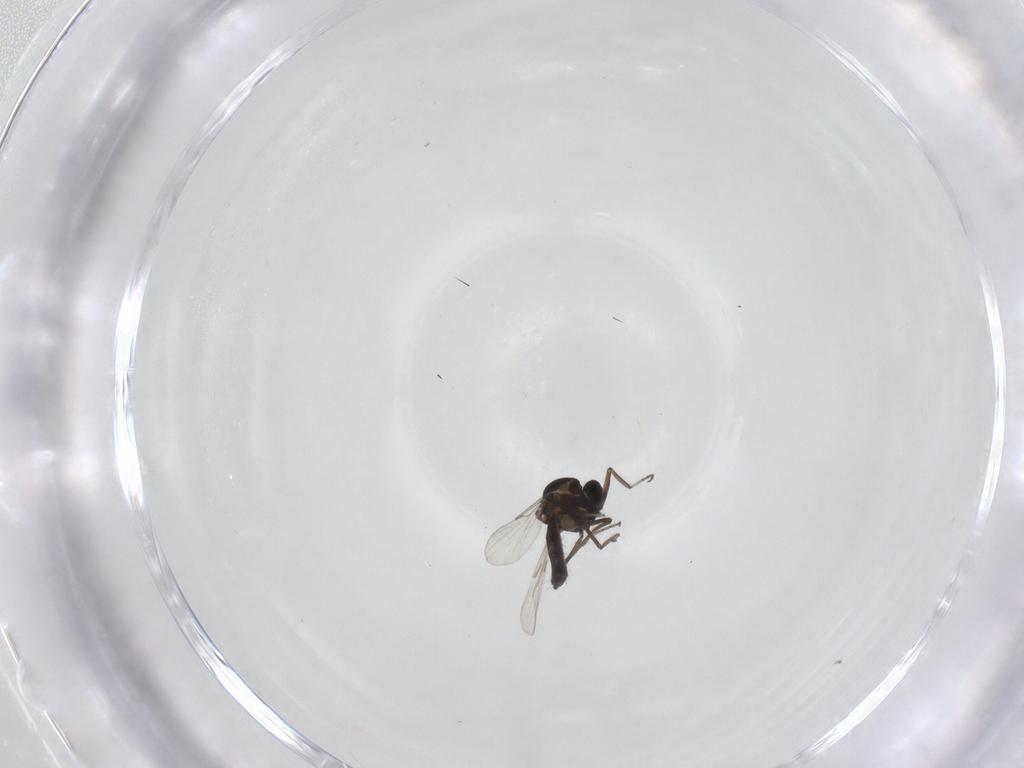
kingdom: Animalia
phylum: Arthropoda
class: Insecta
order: Diptera
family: Ceratopogonidae
